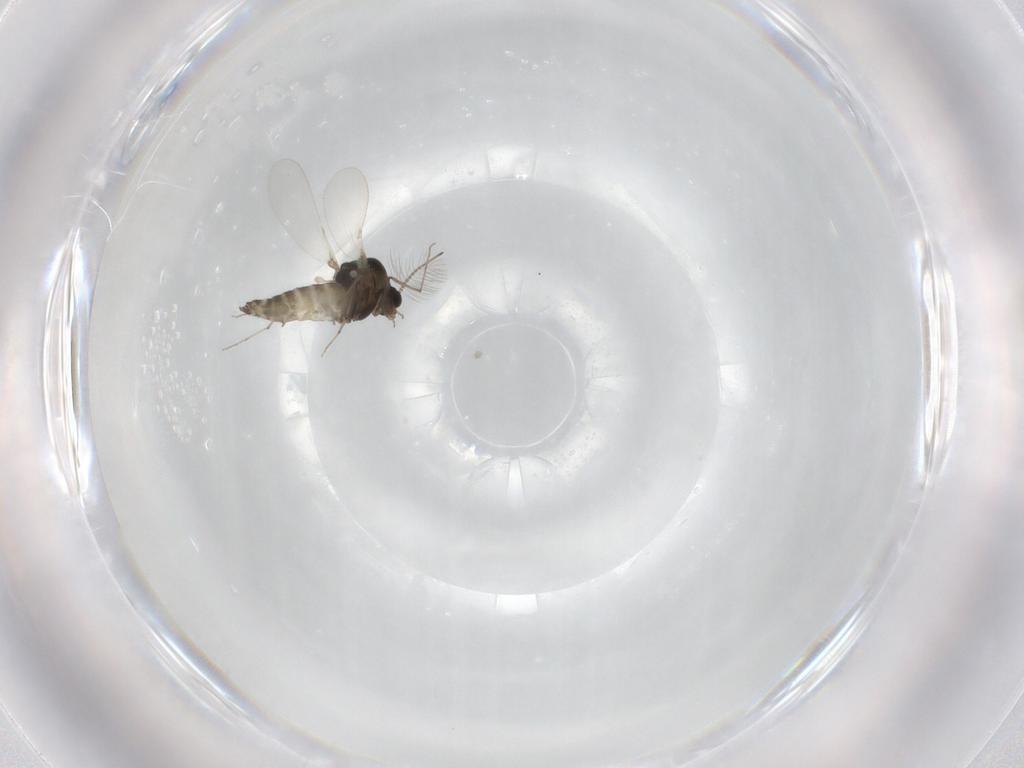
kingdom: Animalia
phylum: Arthropoda
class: Insecta
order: Diptera
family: Chironomidae
